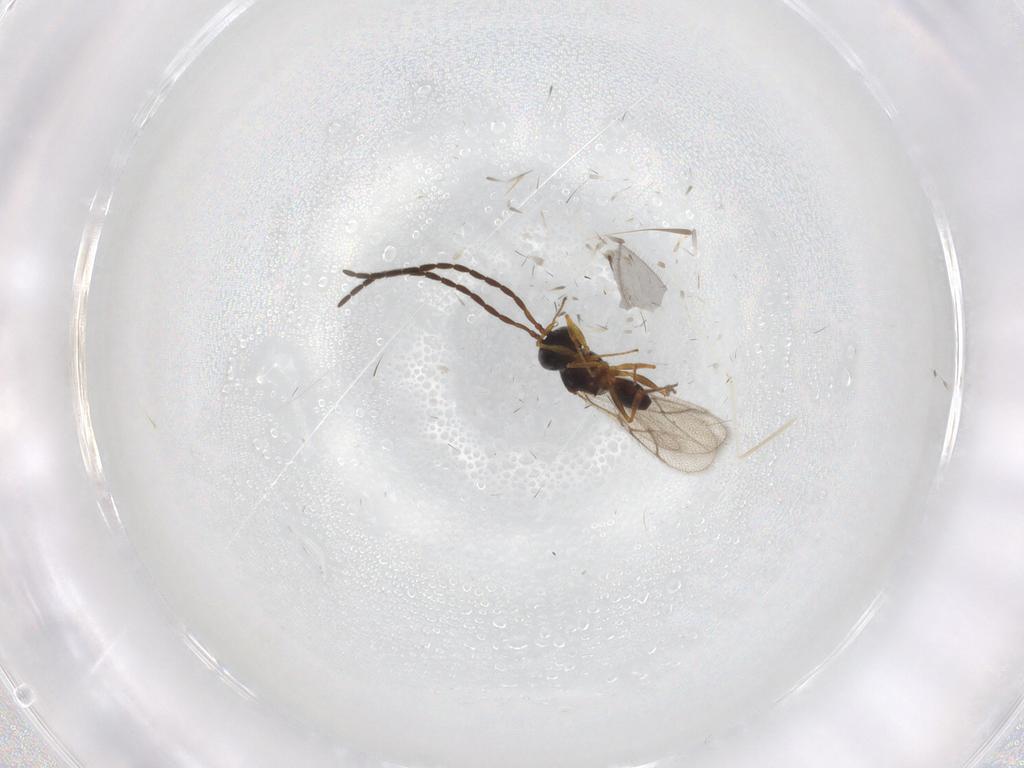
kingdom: Animalia
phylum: Arthropoda
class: Insecta
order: Hymenoptera
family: Figitidae
